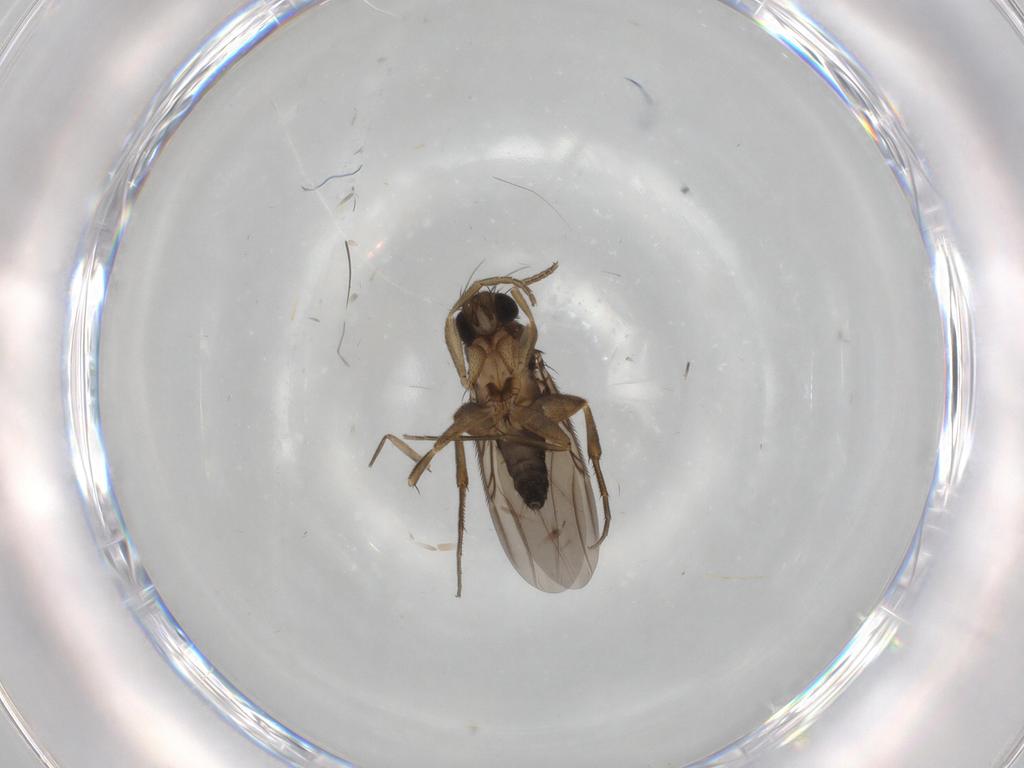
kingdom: Animalia
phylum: Arthropoda
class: Insecta
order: Diptera
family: Phoridae
